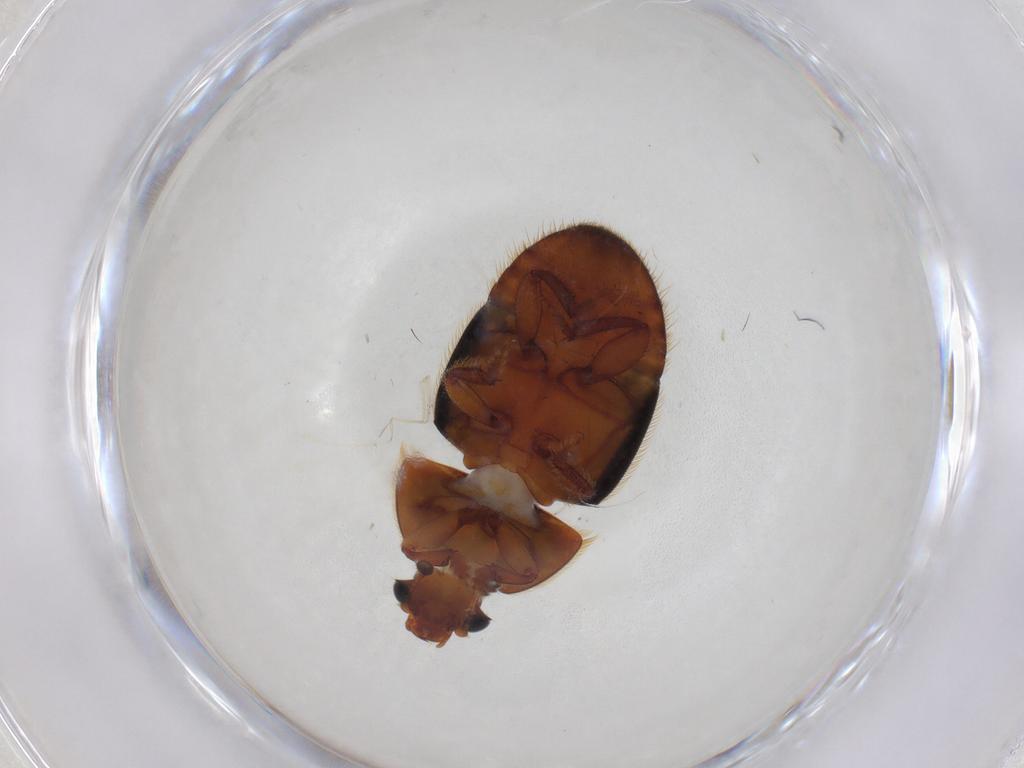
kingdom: Animalia
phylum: Arthropoda
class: Insecta
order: Coleoptera
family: Nitidulidae
